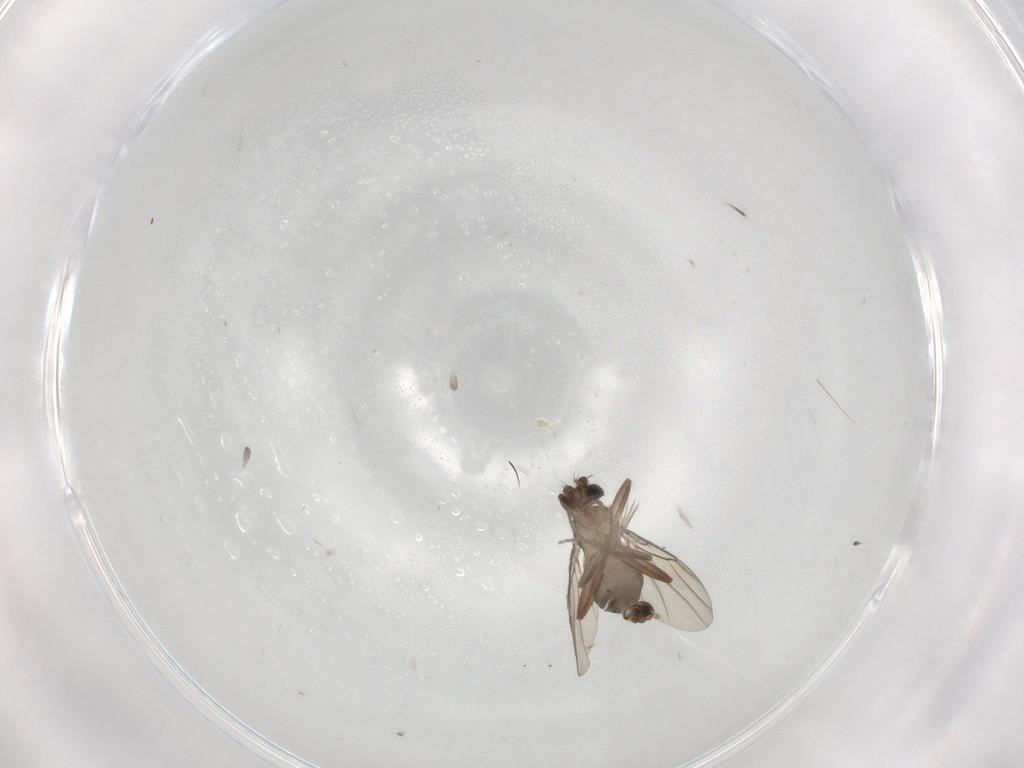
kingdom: Animalia
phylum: Arthropoda
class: Insecta
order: Diptera
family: Phoridae
